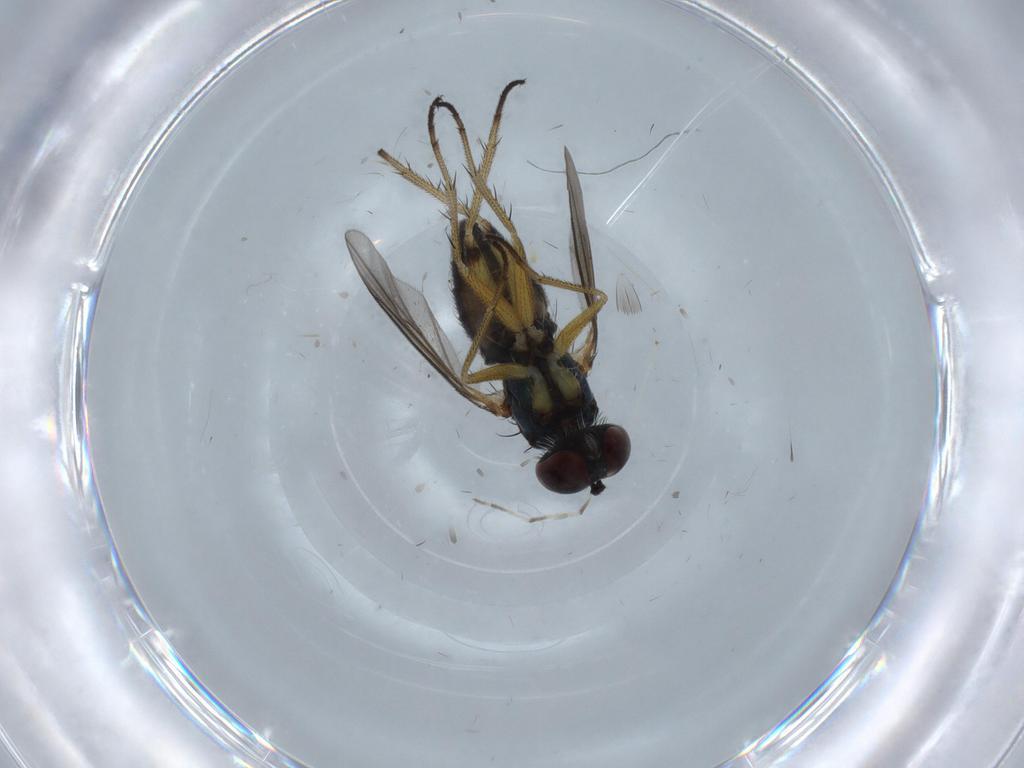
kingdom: Animalia
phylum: Arthropoda
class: Insecta
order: Diptera
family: Dolichopodidae
